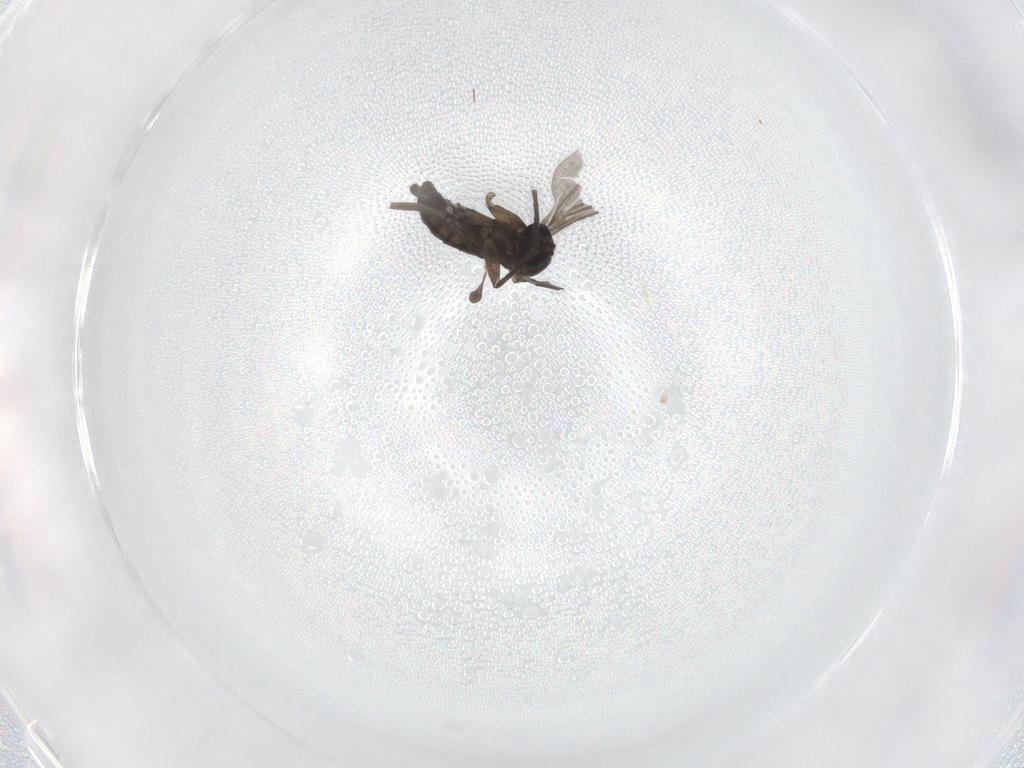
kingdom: Animalia
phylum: Arthropoda
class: Insecta
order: Diptera
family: Sciaridae
